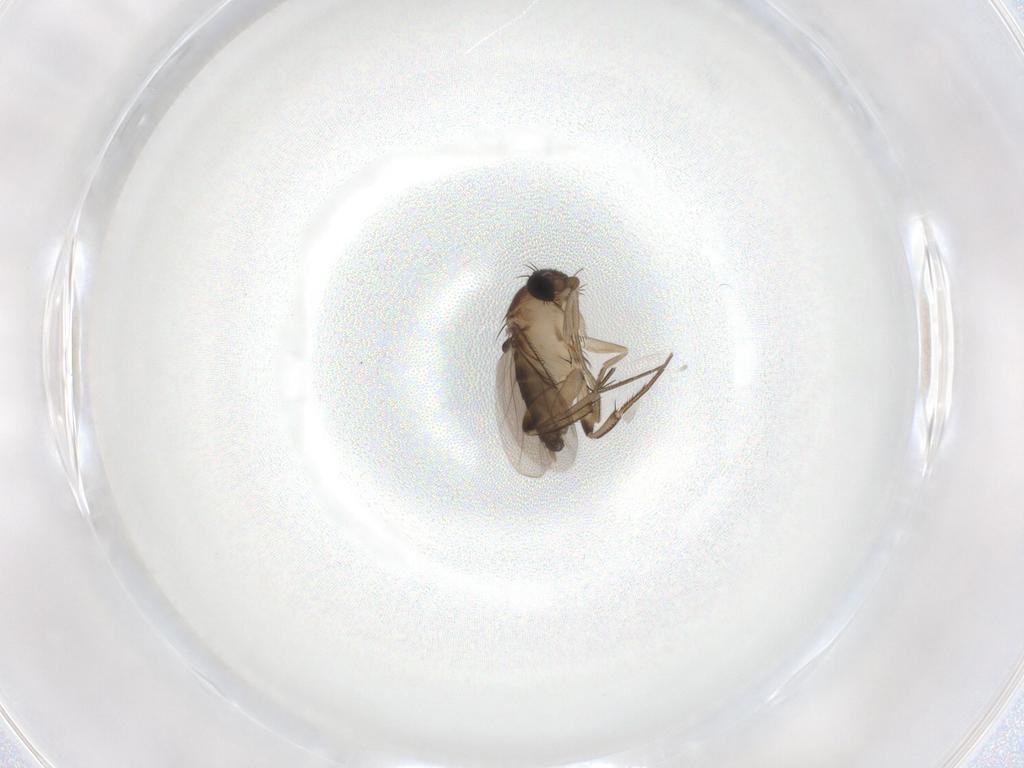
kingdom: Animalia
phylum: Arthropoda
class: Insecta
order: Diptera
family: Phoridae
